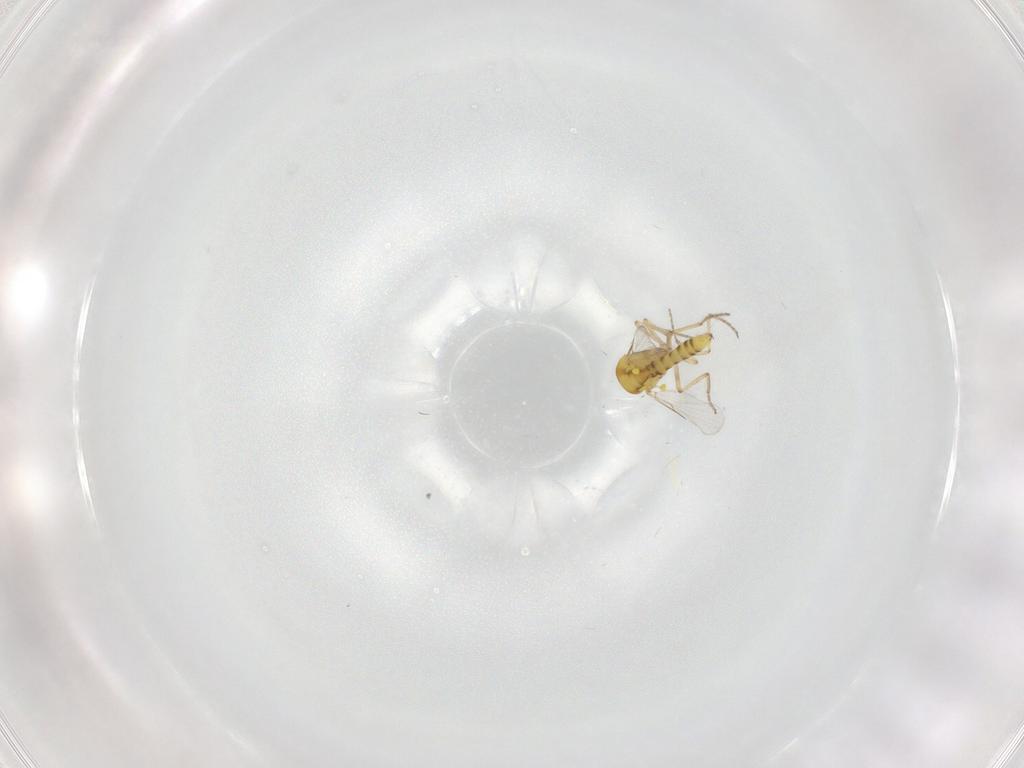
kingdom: Animalia
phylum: Arthropoda
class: Insecta
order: Diptera
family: Ceratopogonidae
